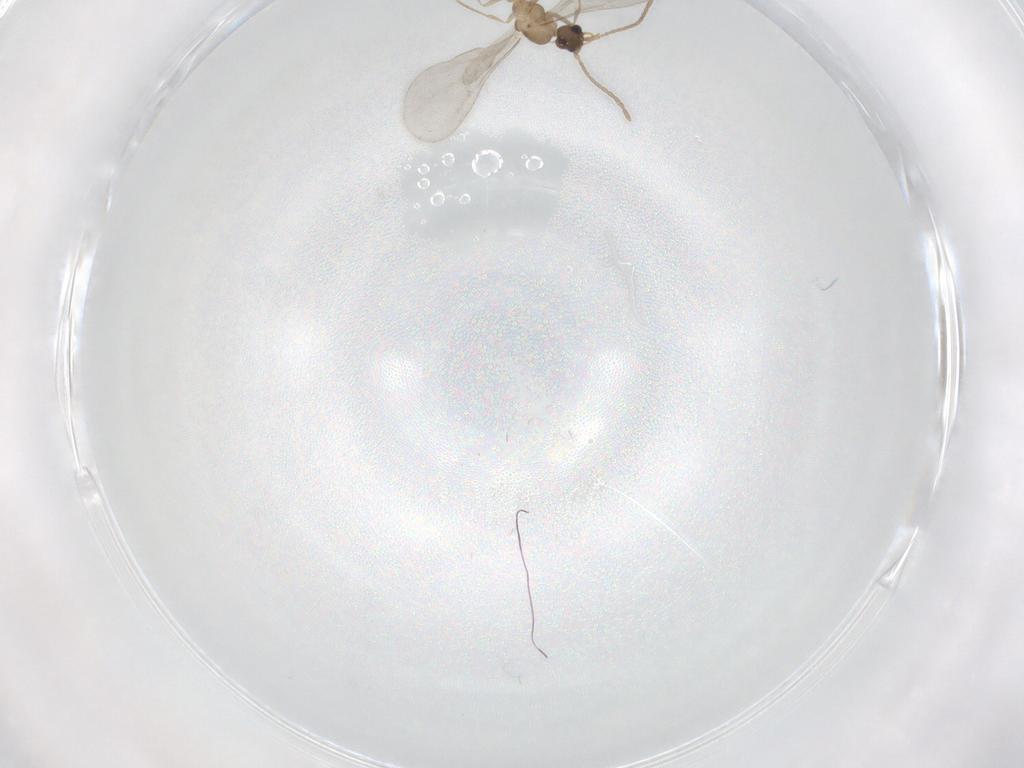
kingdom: Animalia
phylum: Arthropoda
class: Insecta
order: Hymenoptera
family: Formicidae
